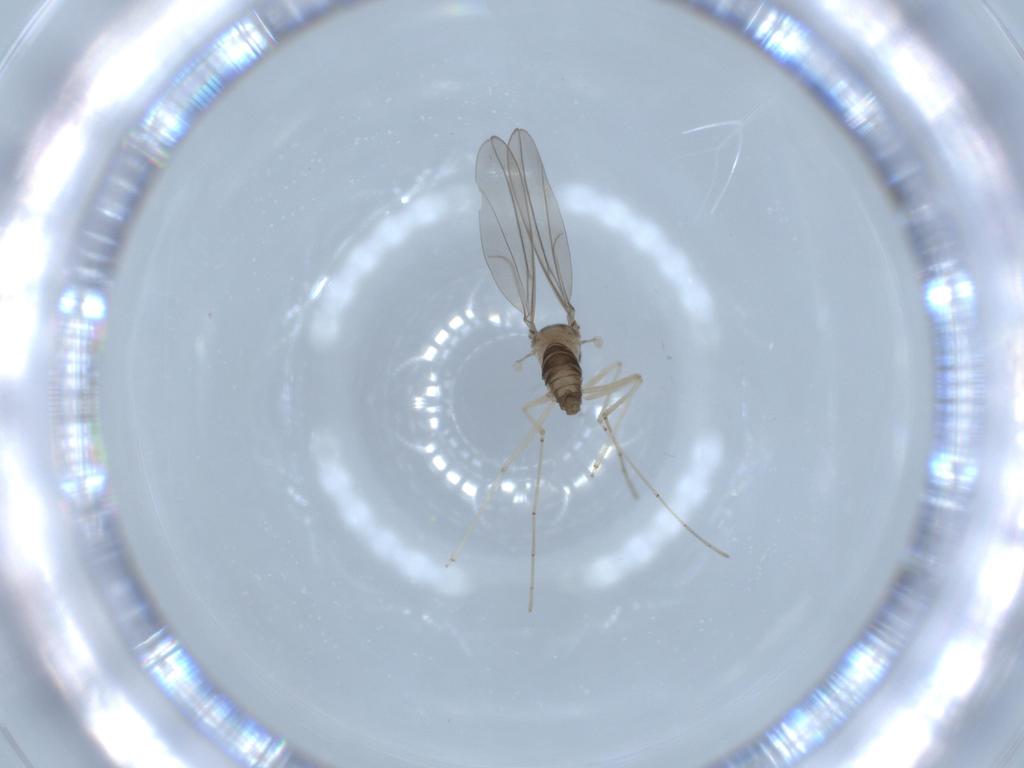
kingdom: Animalia
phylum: Arthropoda
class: Insecta
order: Diptera
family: Cecidomyiidae
